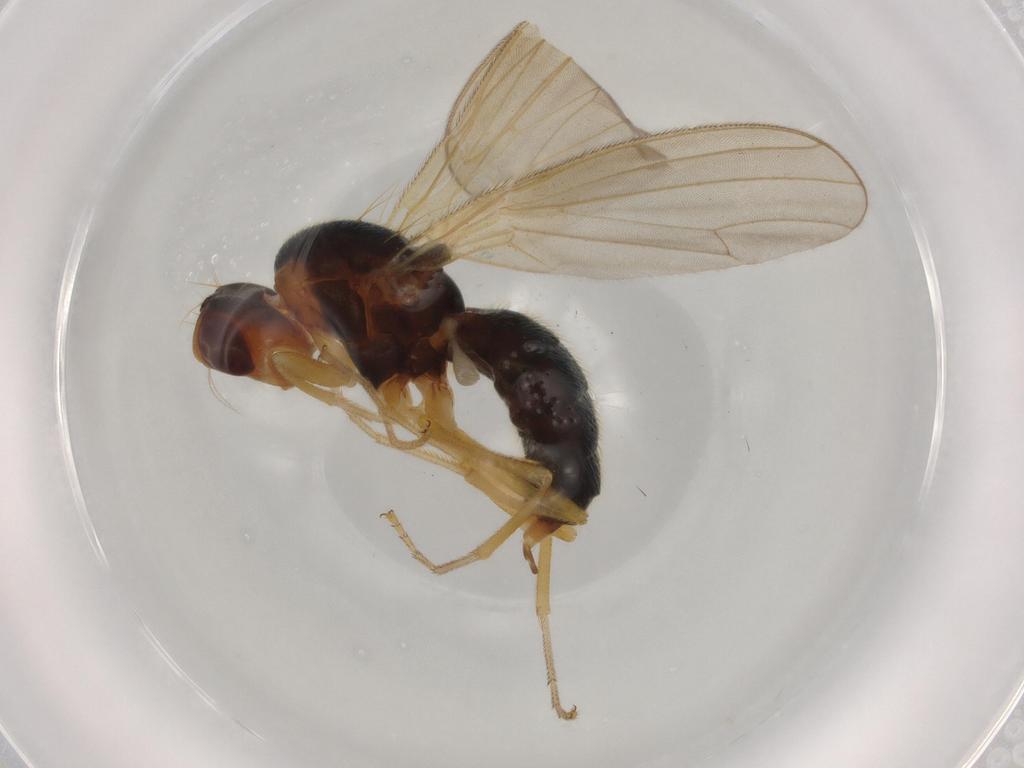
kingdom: Animalia
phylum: Arthropoda
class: Insecta
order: Diptera
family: Psilidae
